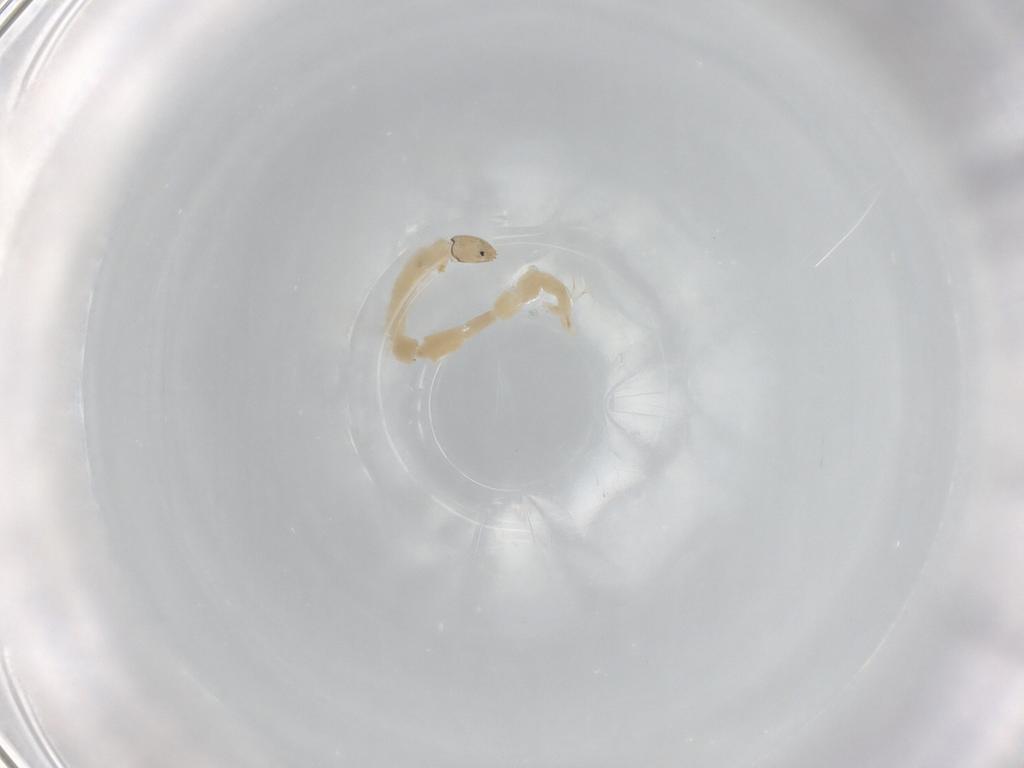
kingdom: Animalia
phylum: Arthropoda
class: Insecta
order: Diptera
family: Chironomidae
